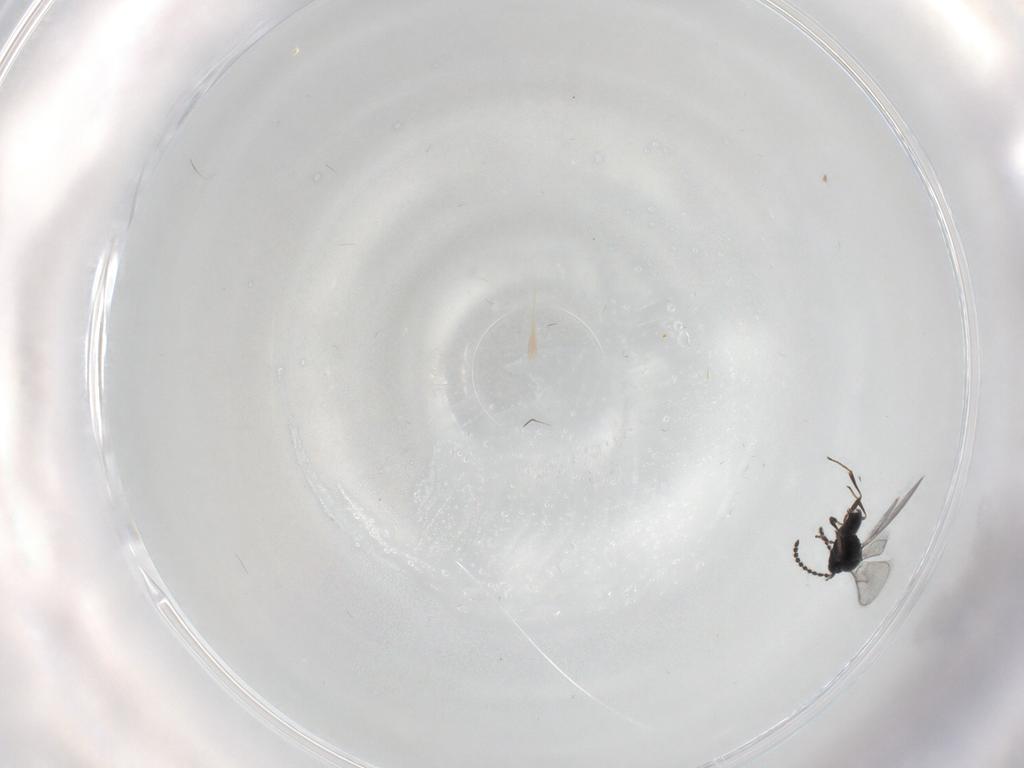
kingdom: Animalia
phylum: Arthropoda
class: Insecta
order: Hymenoptera
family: Scelionidae
